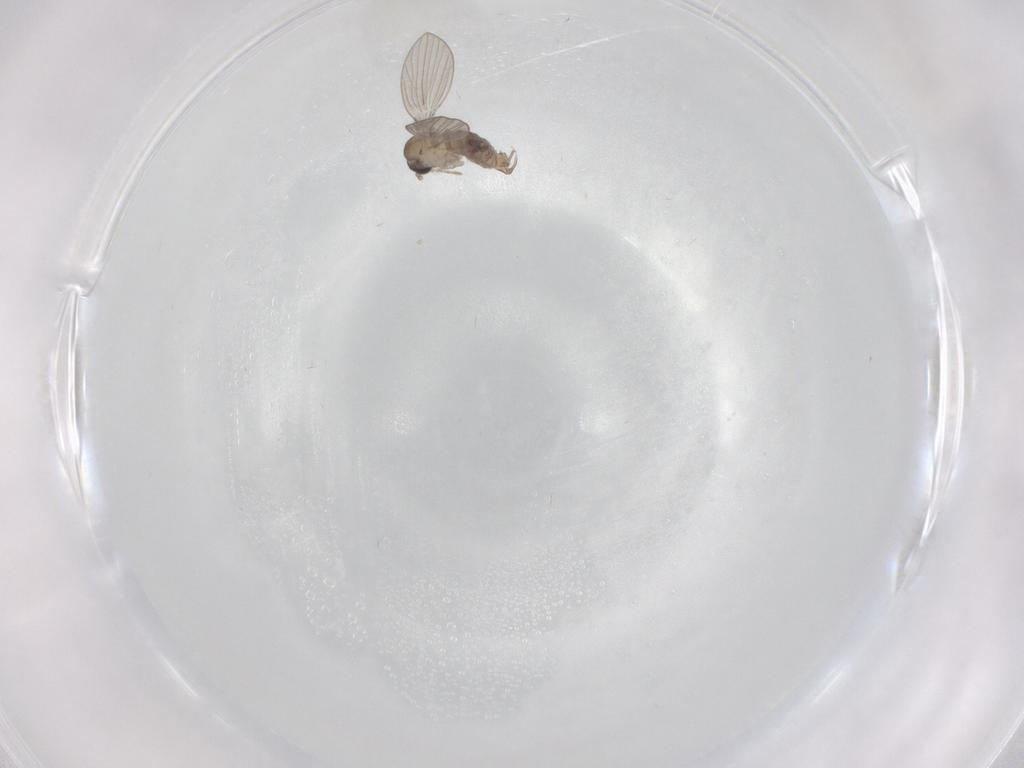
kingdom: Animalia
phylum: Arthropoda
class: Insecta
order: Diptera
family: Psychodidae
